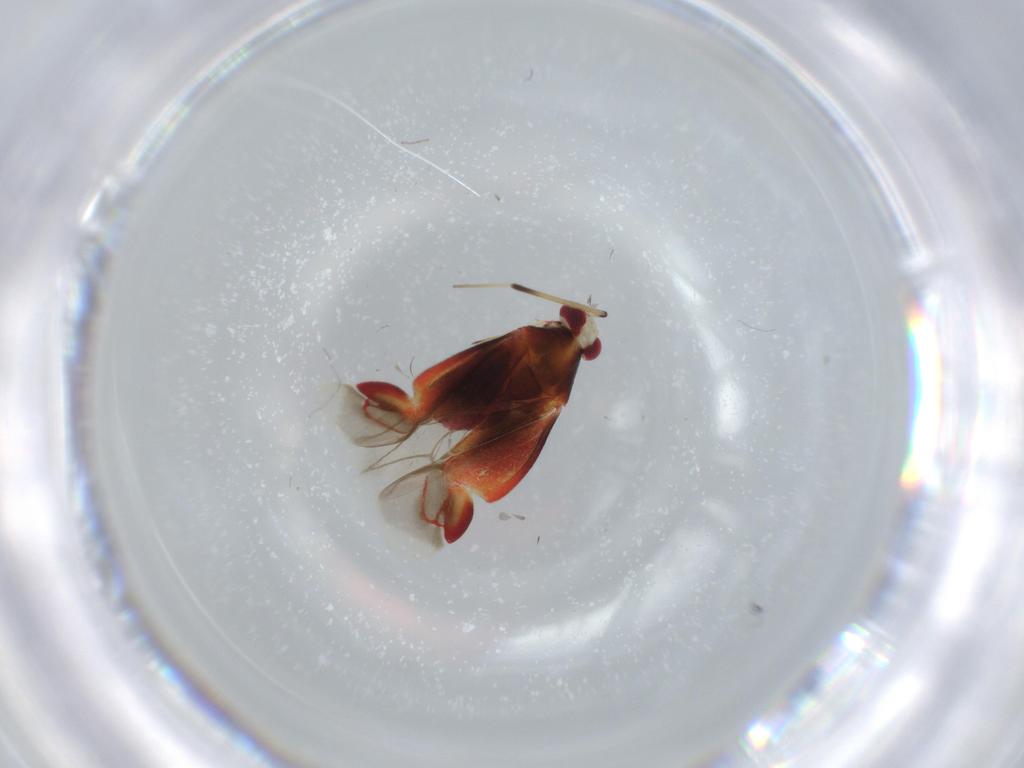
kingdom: Animalia
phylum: Arthropoda
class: Insecta
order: Hemiptera
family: Miridae
